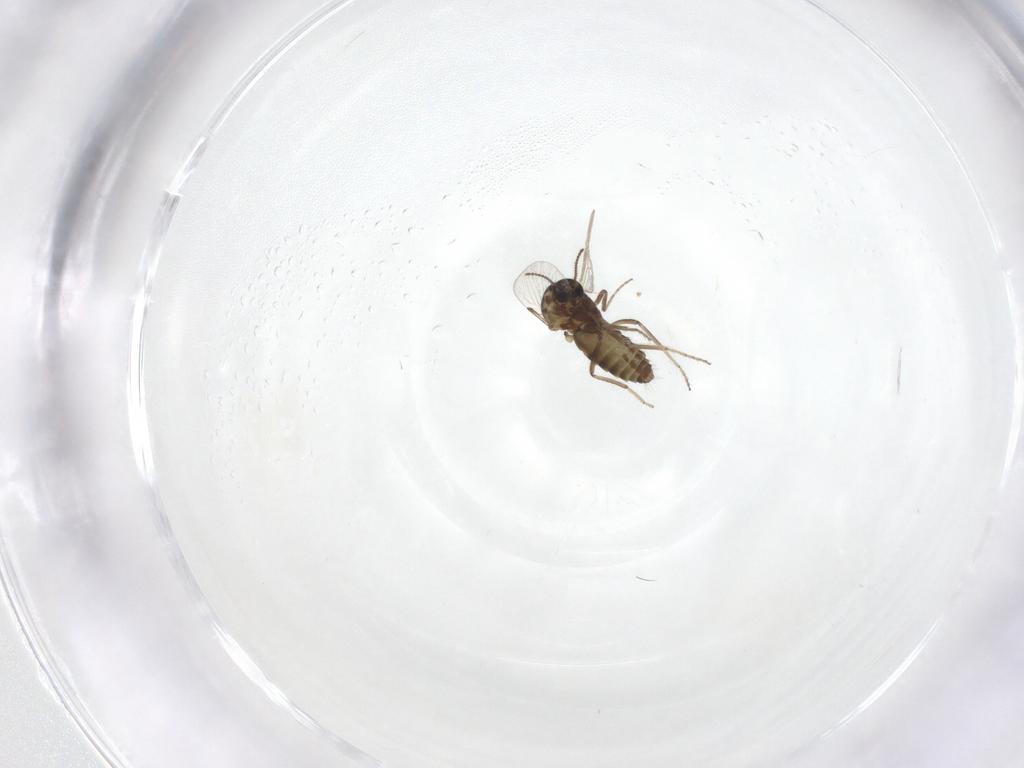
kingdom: Animalia
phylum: Arthropoda
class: Insecta
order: Diptera
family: Ceratopogonidae
